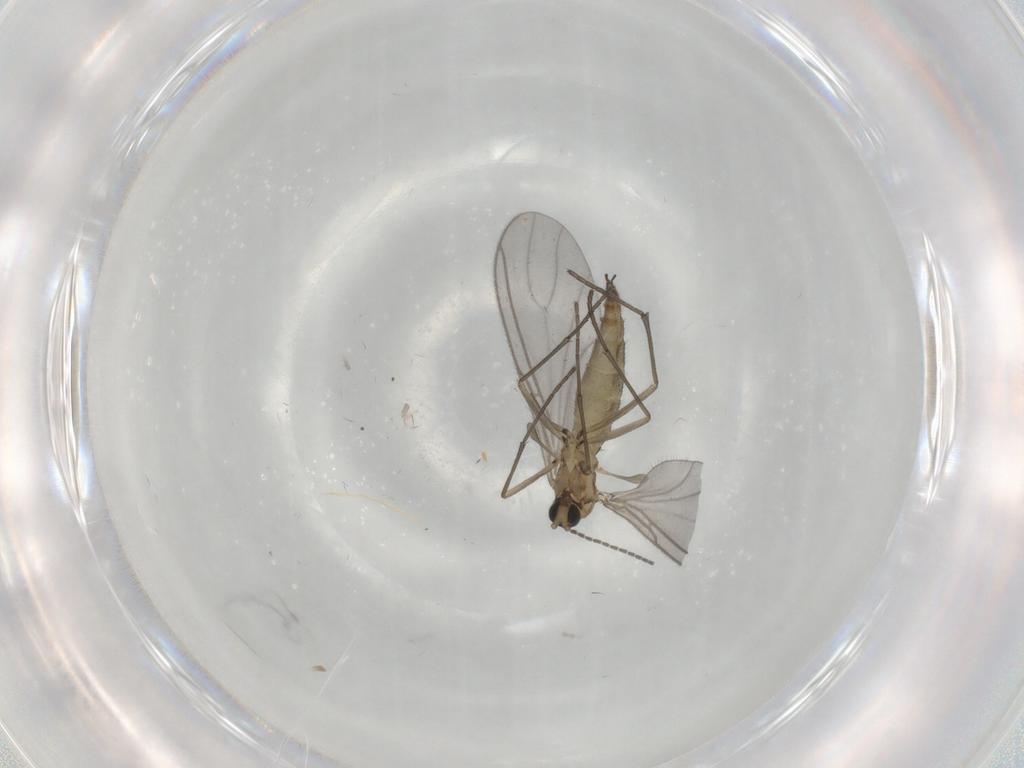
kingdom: Animalia
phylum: Arthropoda
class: Insecta
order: Diptera
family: Sciaridae
